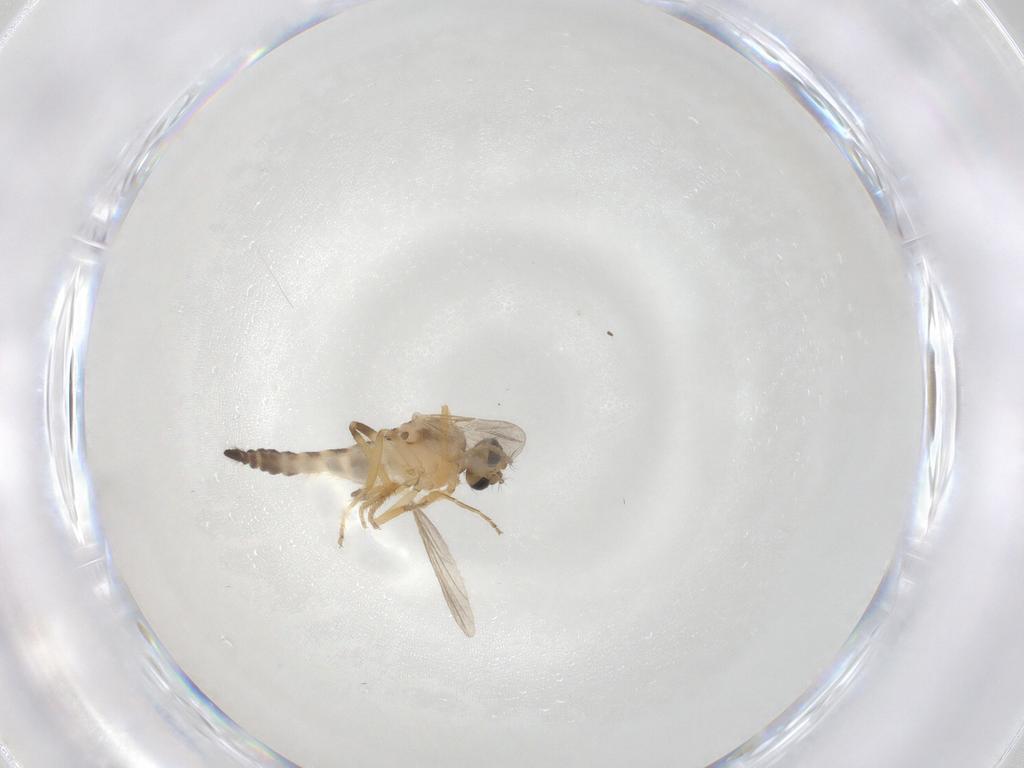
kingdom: Animalia
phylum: Arthropoda
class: Insecta
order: Diptera
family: Ceratopogonidae
